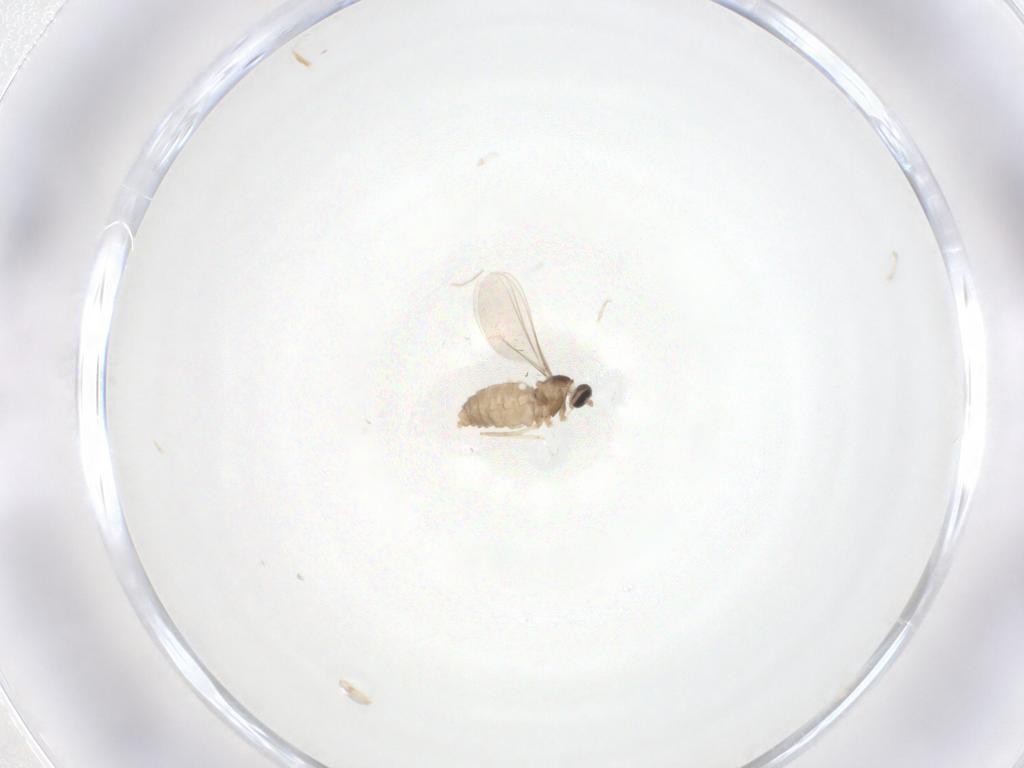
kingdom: Animalia
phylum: Arthropoda
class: Insecta
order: Diptera
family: Cecidomyiidae
